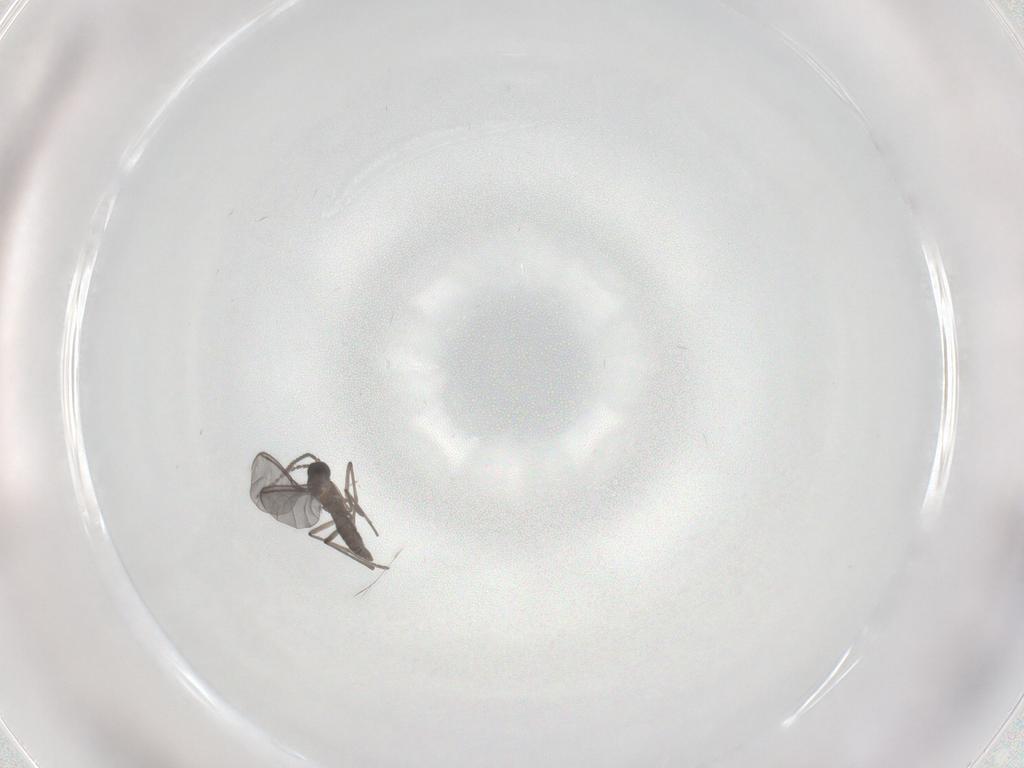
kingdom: Animalia
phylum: Arthropoda
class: Insecta
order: Diptera
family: Sciaridae
